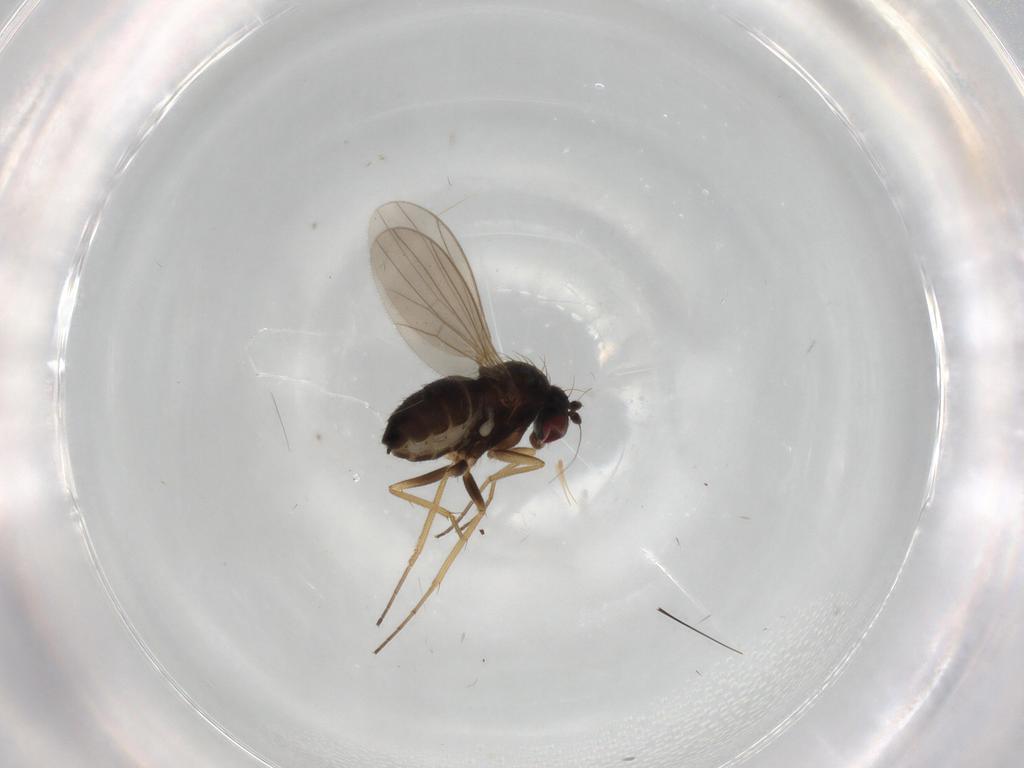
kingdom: Animalia
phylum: Arthropoda
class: Insecta
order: Diptera
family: Dolichopodidae
